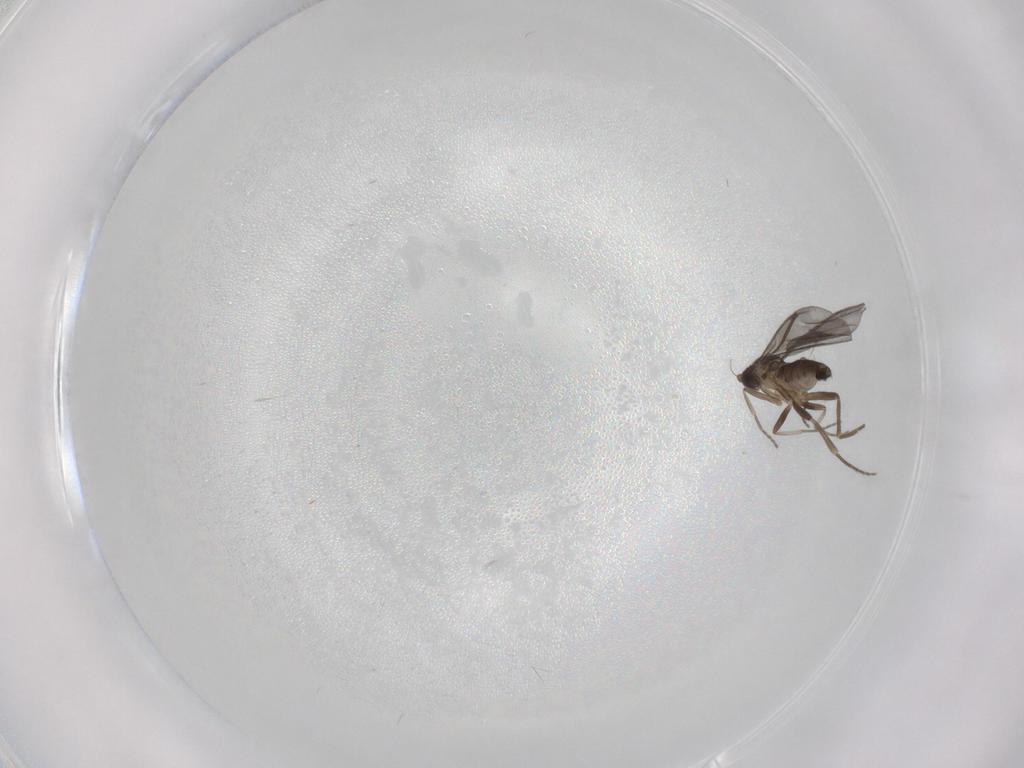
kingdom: Animalia
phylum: Arthropoda
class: Insecta
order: Diptera
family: Phoridae
